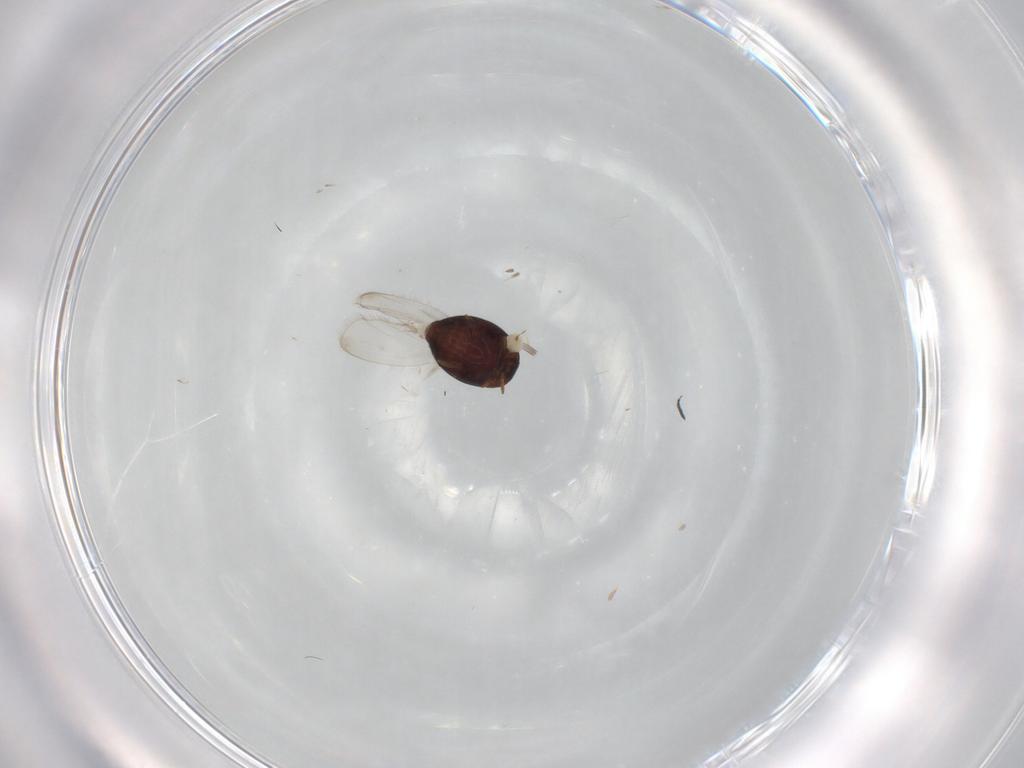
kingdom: Animalia
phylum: Arthropoda
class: Insecta
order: Coleoptera
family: Corylophidae
